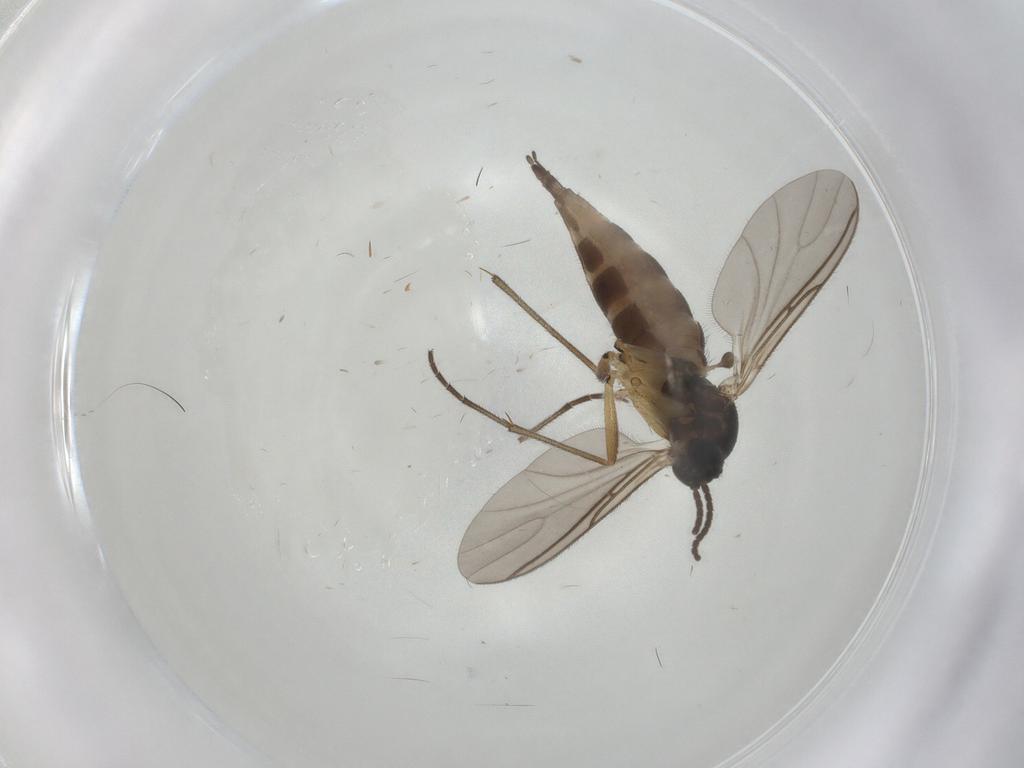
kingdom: Animalia
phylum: Arthropoda
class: Insecta
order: Diptera
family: Sciaridae
